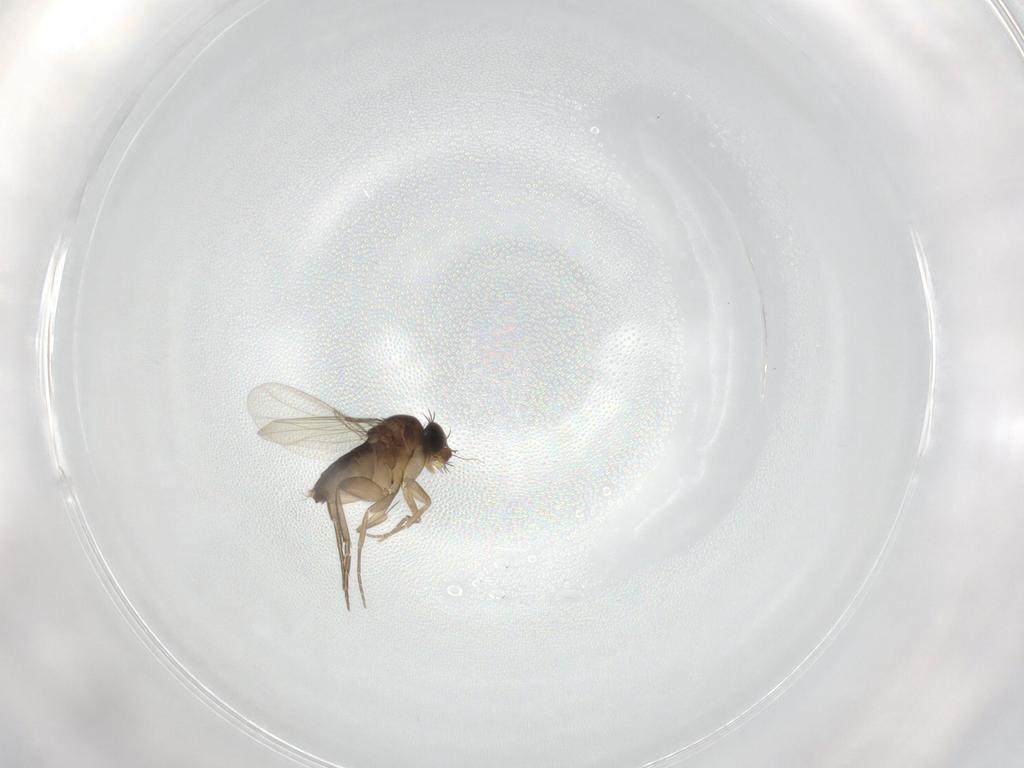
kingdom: Animalia
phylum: Arthropoda
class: Insecta
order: Diptera
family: Phoridae
